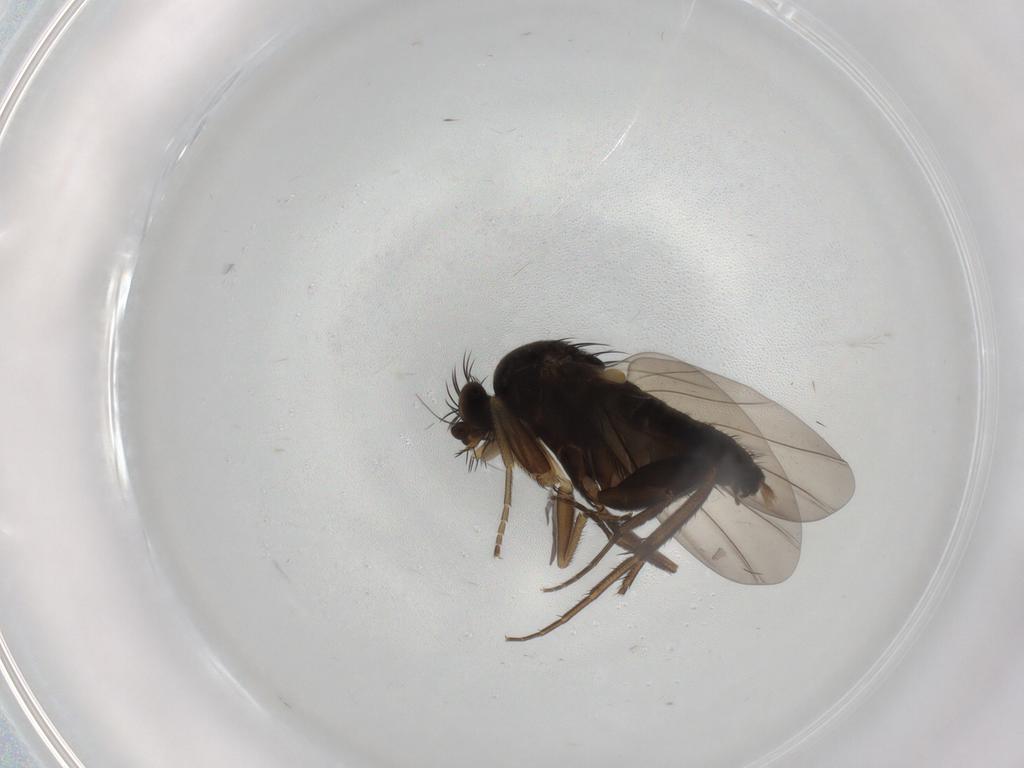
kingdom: Animalia
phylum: Arthropoda
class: Insecta
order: Diptera
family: Phoridae
